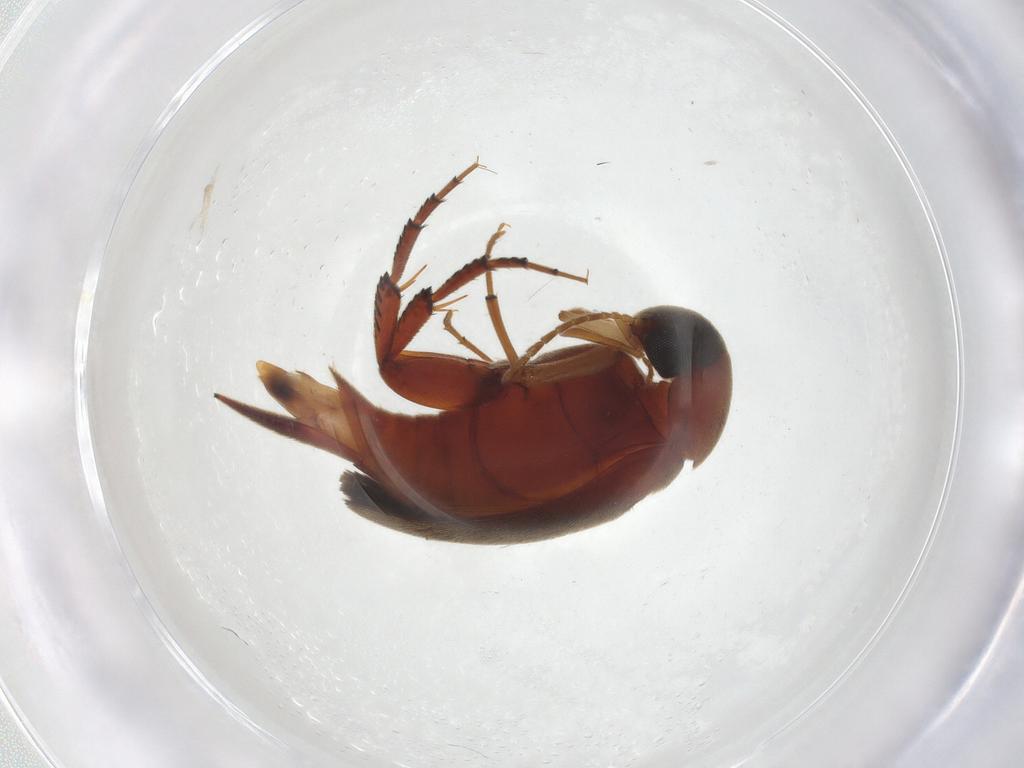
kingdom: Animalia
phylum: Arthropoda
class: Insecta
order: Coleoptera
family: Mordellidae
